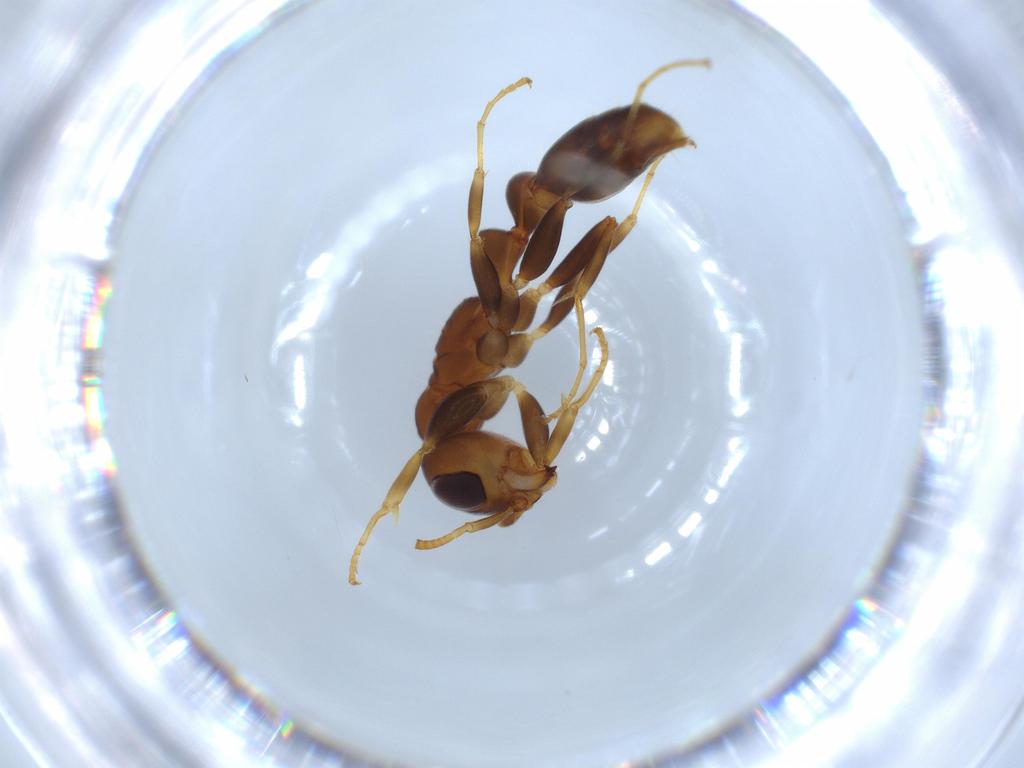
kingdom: Animalia
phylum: Arthropoda
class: Insecta
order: Hymenoptera
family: Formicidae
